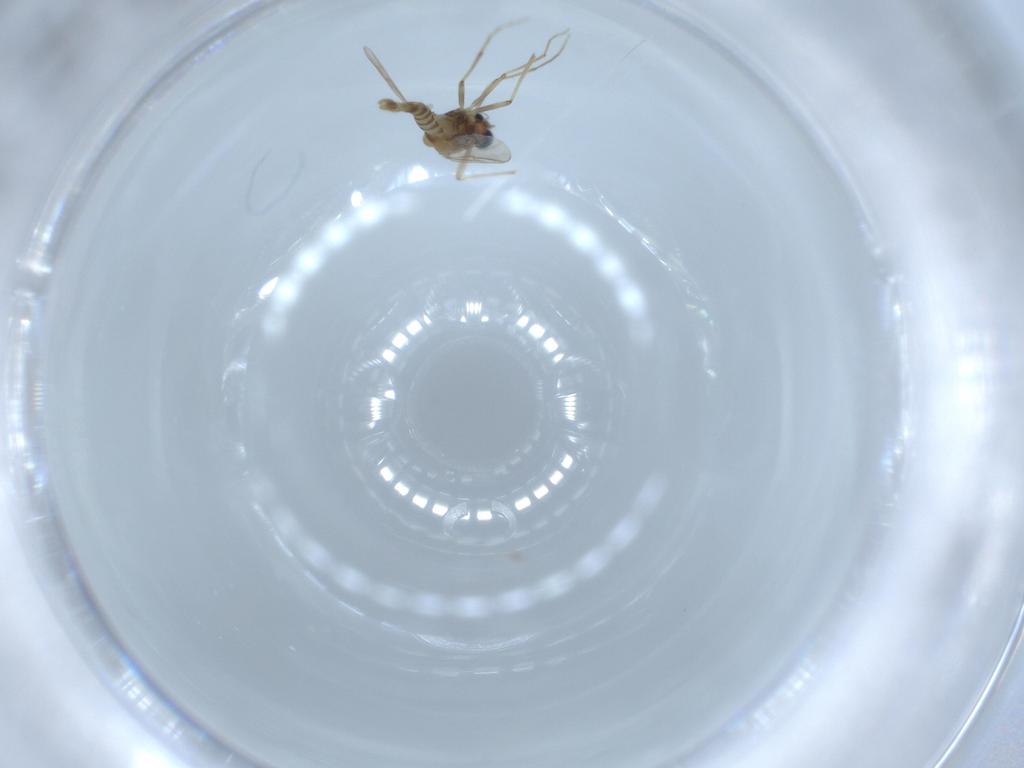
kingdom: Animalia
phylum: Arthropoda
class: Insecta
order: Diptera
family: Chironomidae
